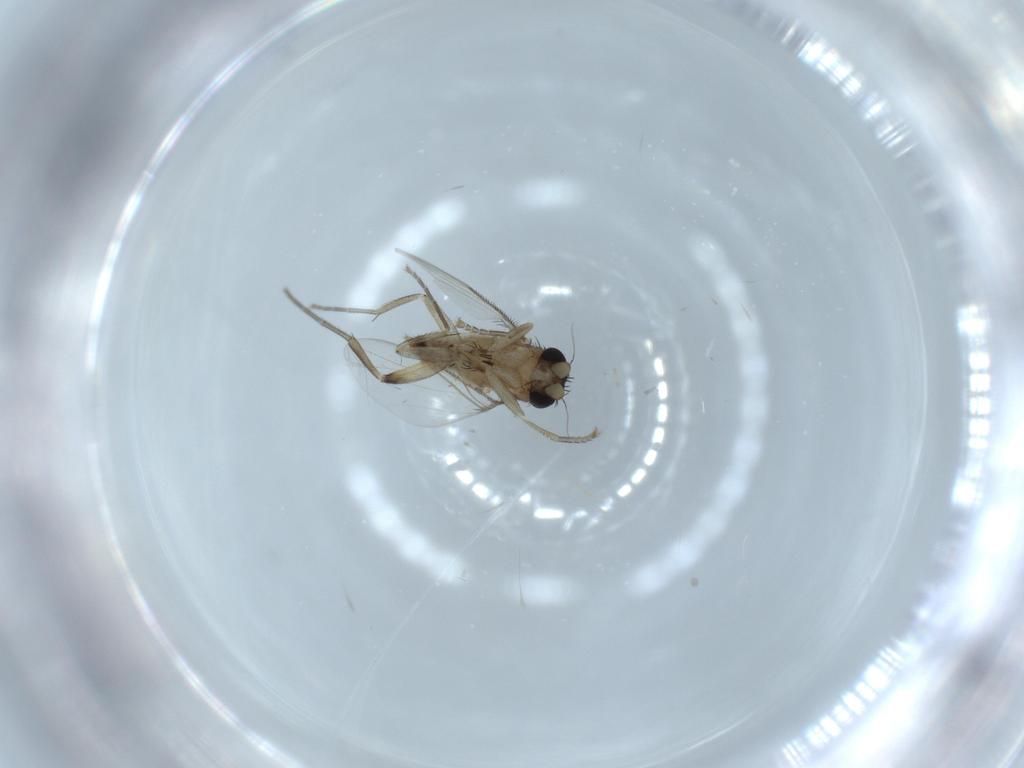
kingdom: Animalia
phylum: Arthropoda
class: Insecta
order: Diptera
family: Phoridae
